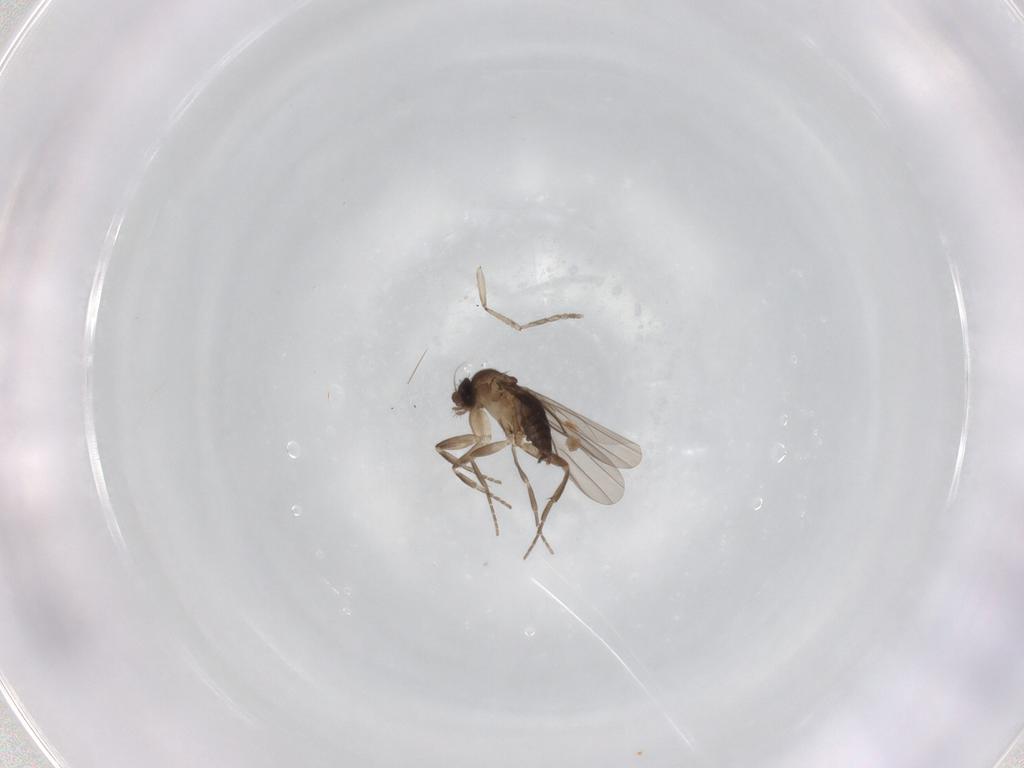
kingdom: Animalia
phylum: Arthropoda
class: Insecta
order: Diptera
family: Phoridae
